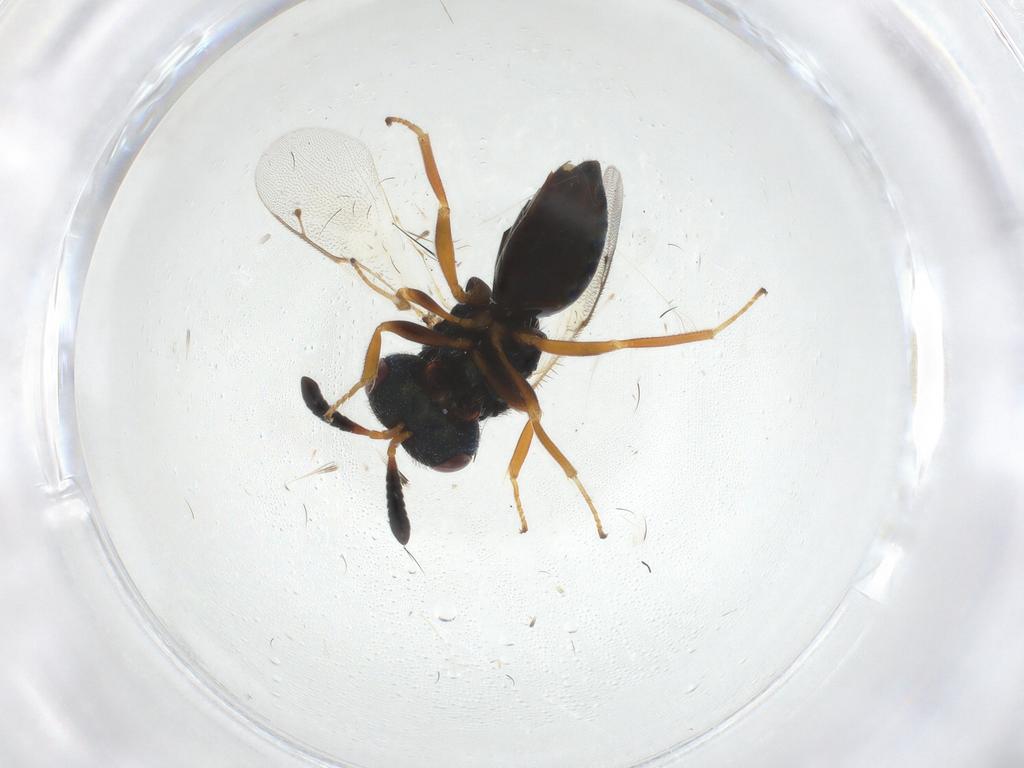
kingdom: Animalia
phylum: Arthropoda
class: Insecta
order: Hymenoptera
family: Pteromalidae
